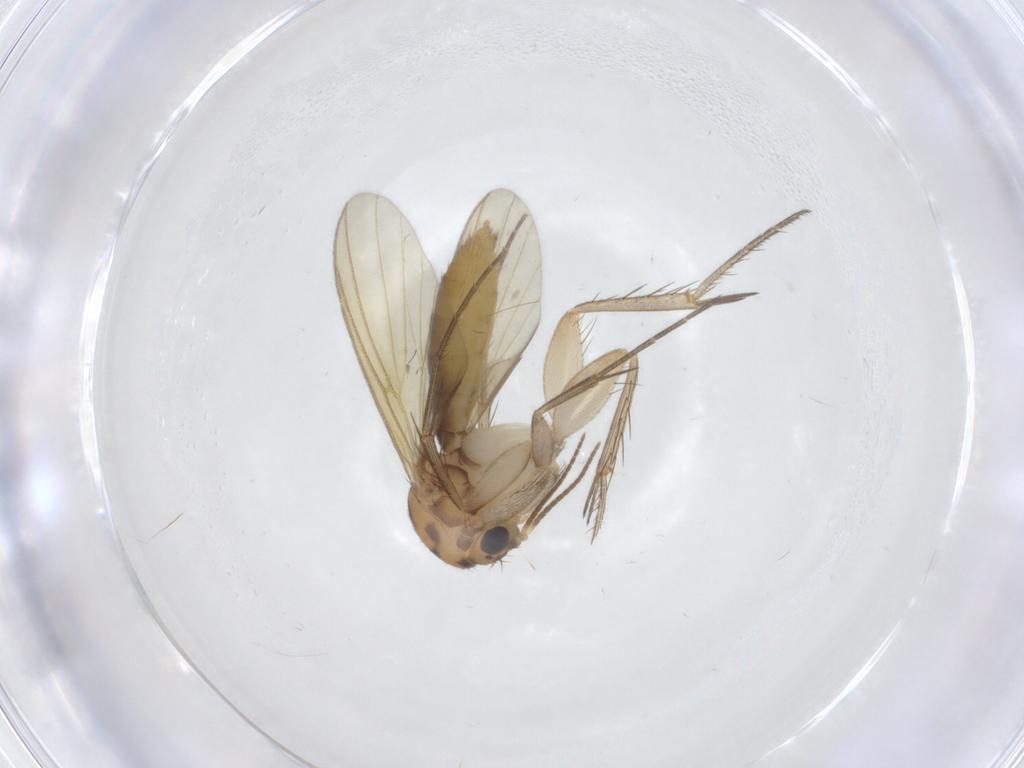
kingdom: Animalia
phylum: Arthropoda
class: Insecta
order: Diptera
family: Mycetophilidae
